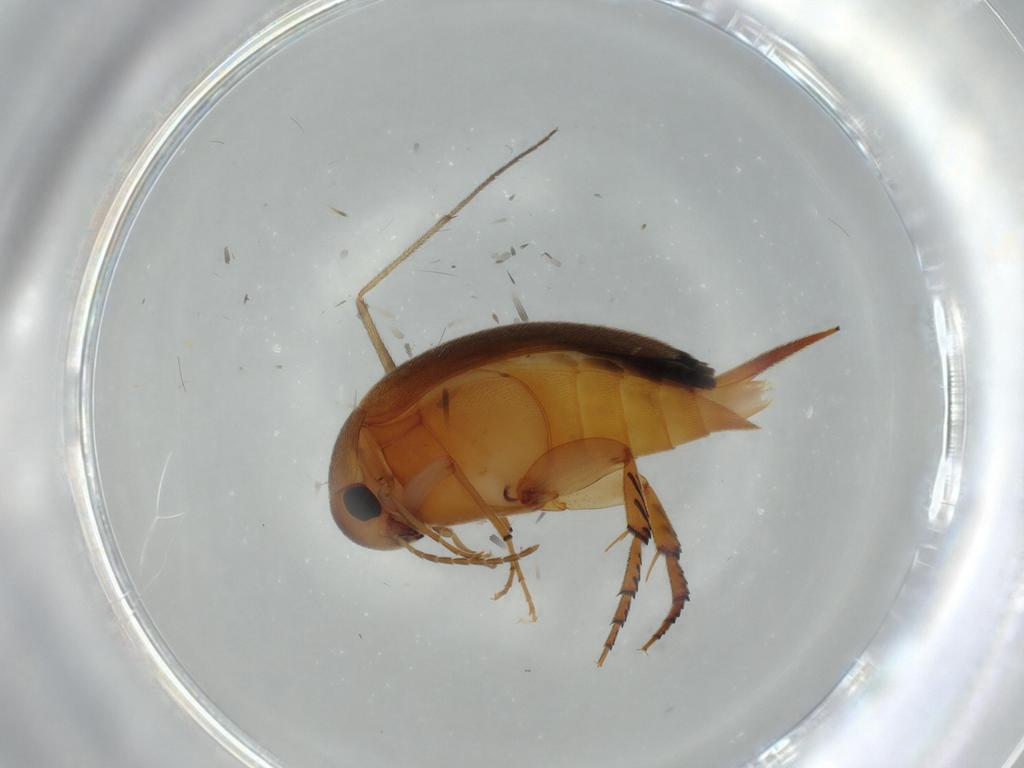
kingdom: Animalia
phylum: Arthropoda
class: Insecta
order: Coleoptera
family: Mordellidae
